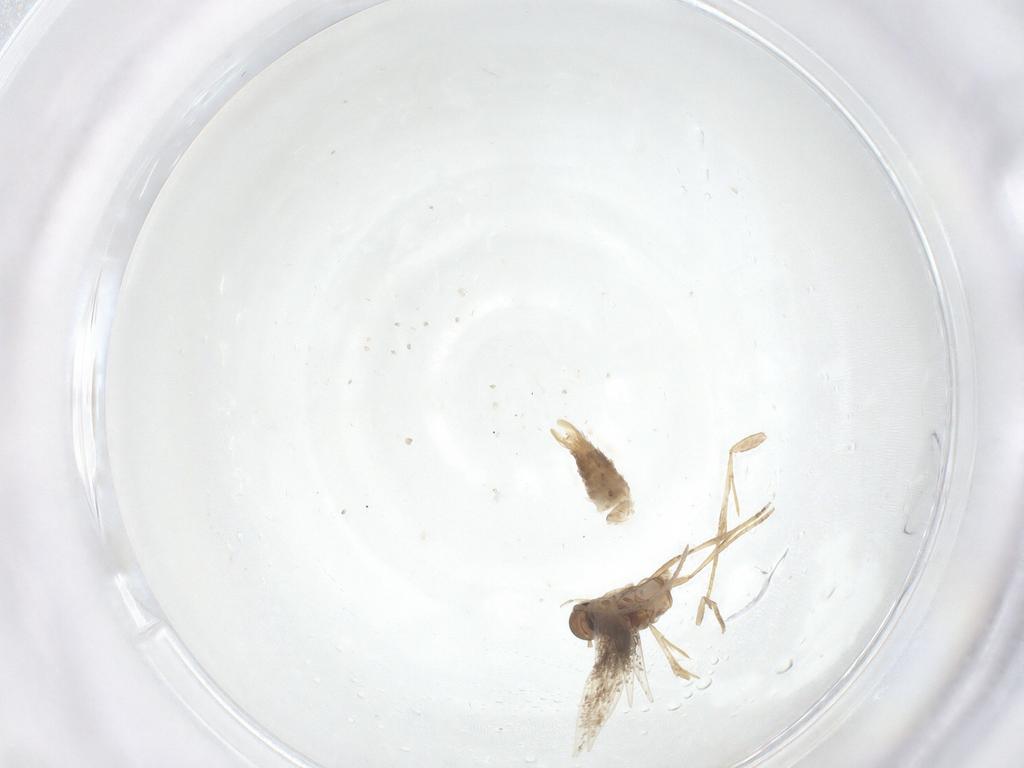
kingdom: Animalia
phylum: Arthropoda
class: Insecta
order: Lepidoptera
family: Gelechiidae
